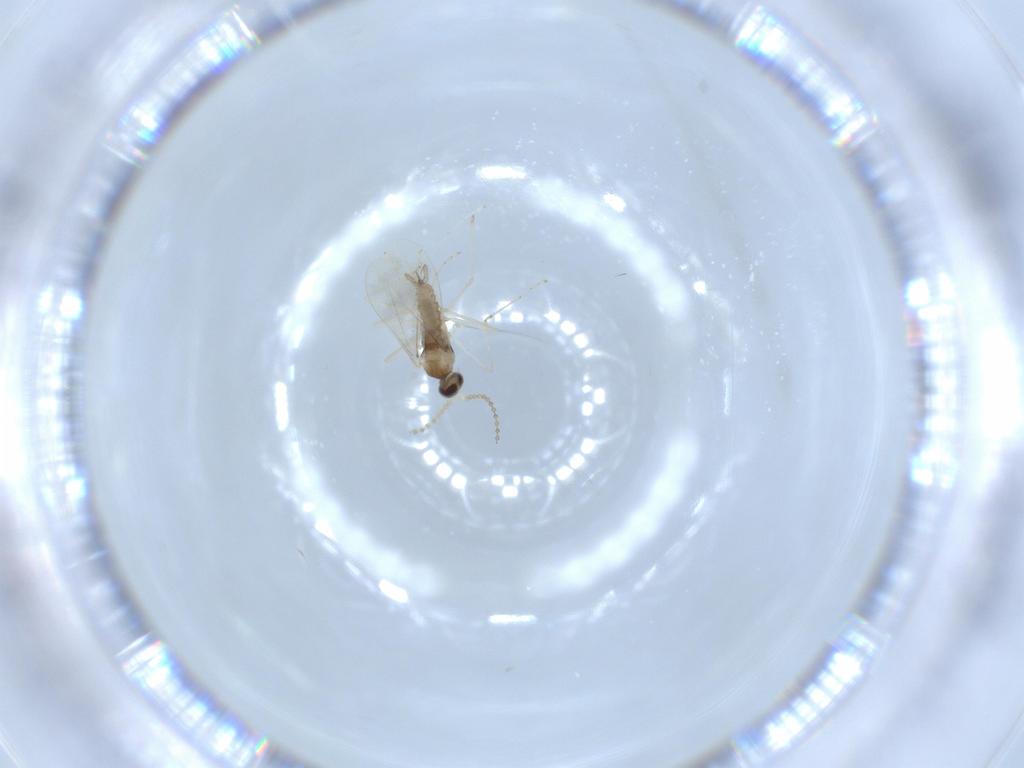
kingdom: Animalia
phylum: Arthropoda
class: Insecta
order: Diptera
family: Cecidomyiidae
